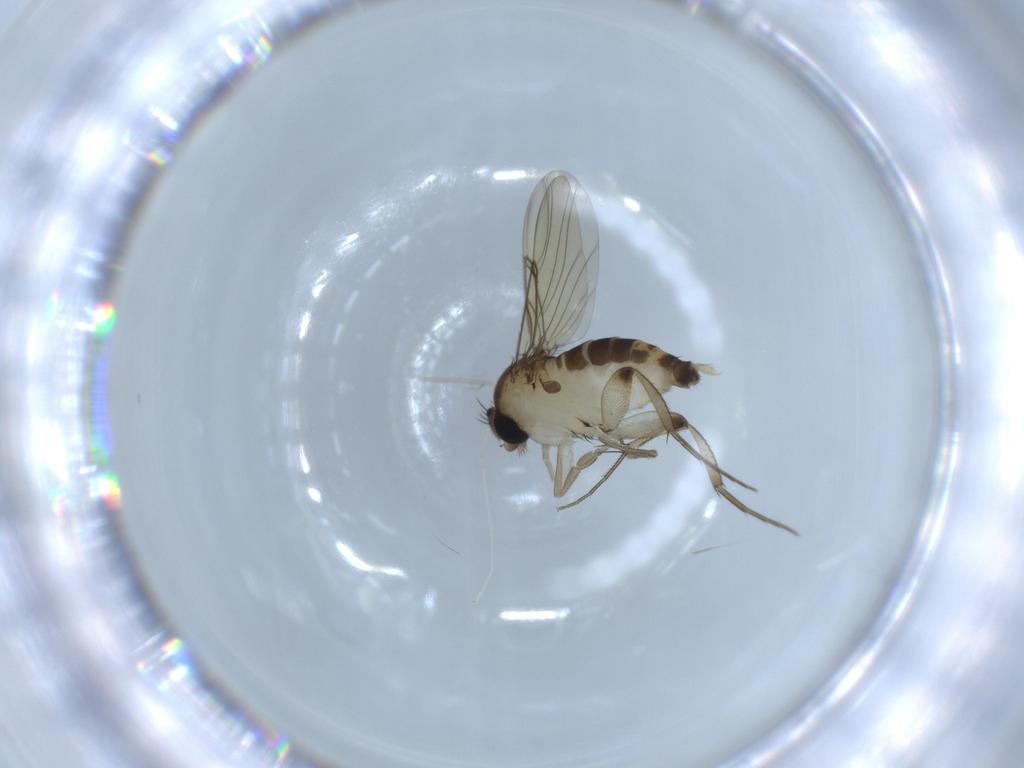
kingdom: Animalia
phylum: Arthropoda
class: Insecta
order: Diptera
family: Phoridae
